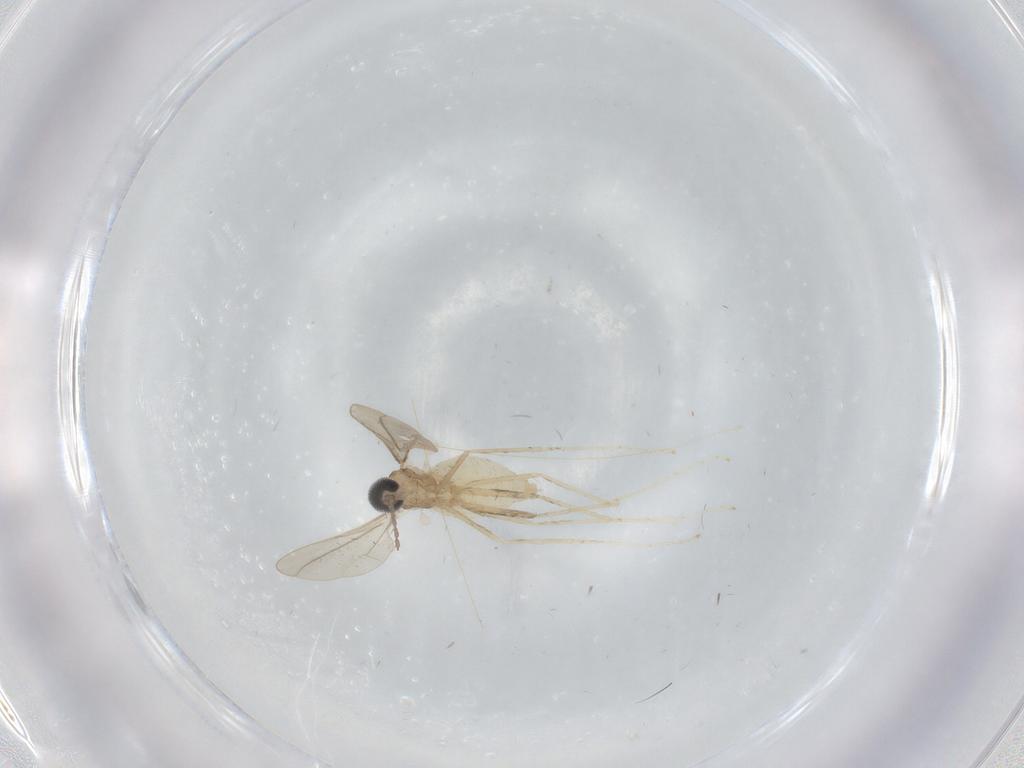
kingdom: Animalia
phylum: Arthropoda
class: Insecta
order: Diptera
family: Cecidomyiidae
